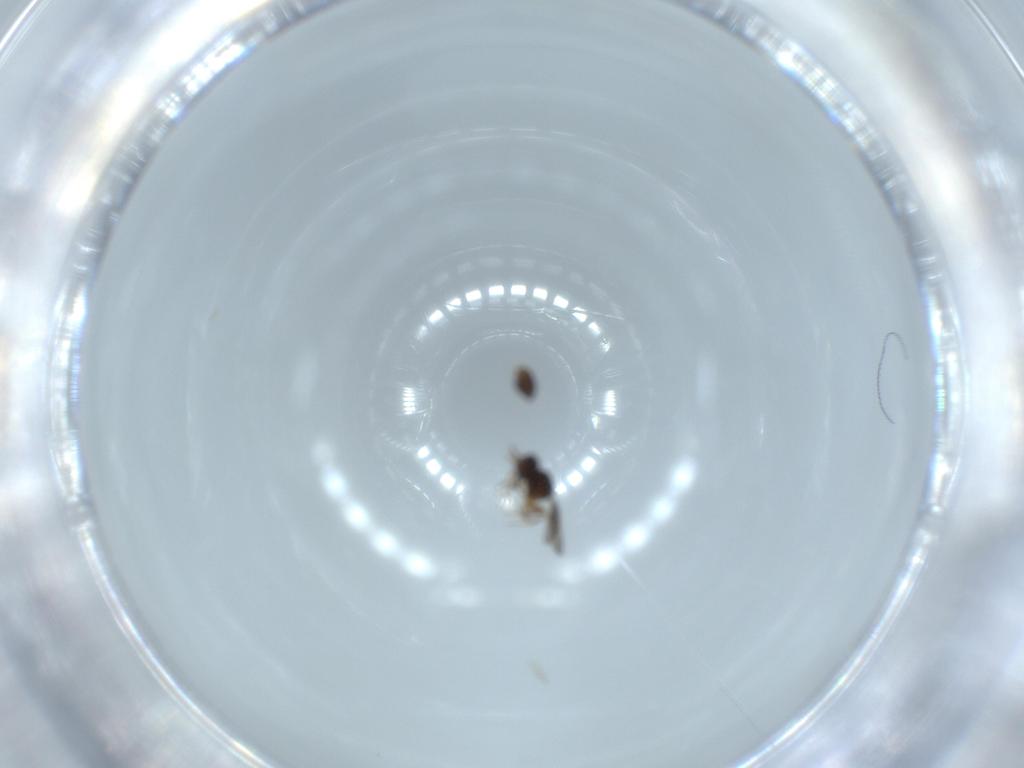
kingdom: Animalia
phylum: Arthropoda
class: Insecta
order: Hymenoptera
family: Ceraphronidae
